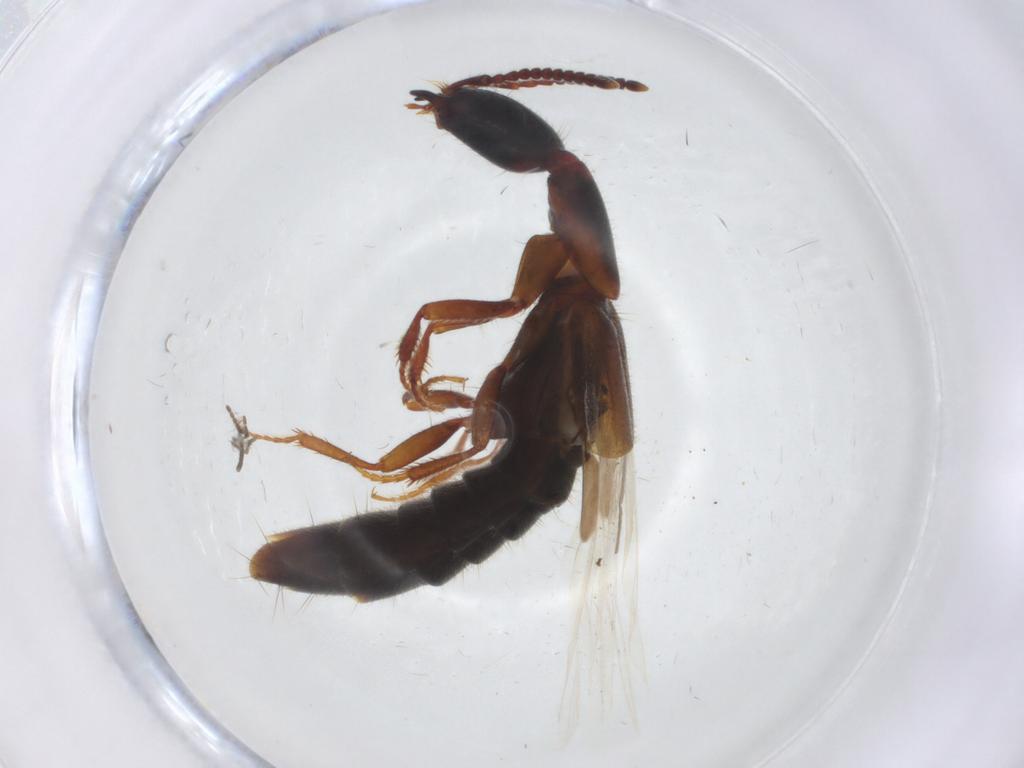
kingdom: Animalia
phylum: Arthropoda
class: Insecta
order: Coleoptera
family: Staphylinidae
